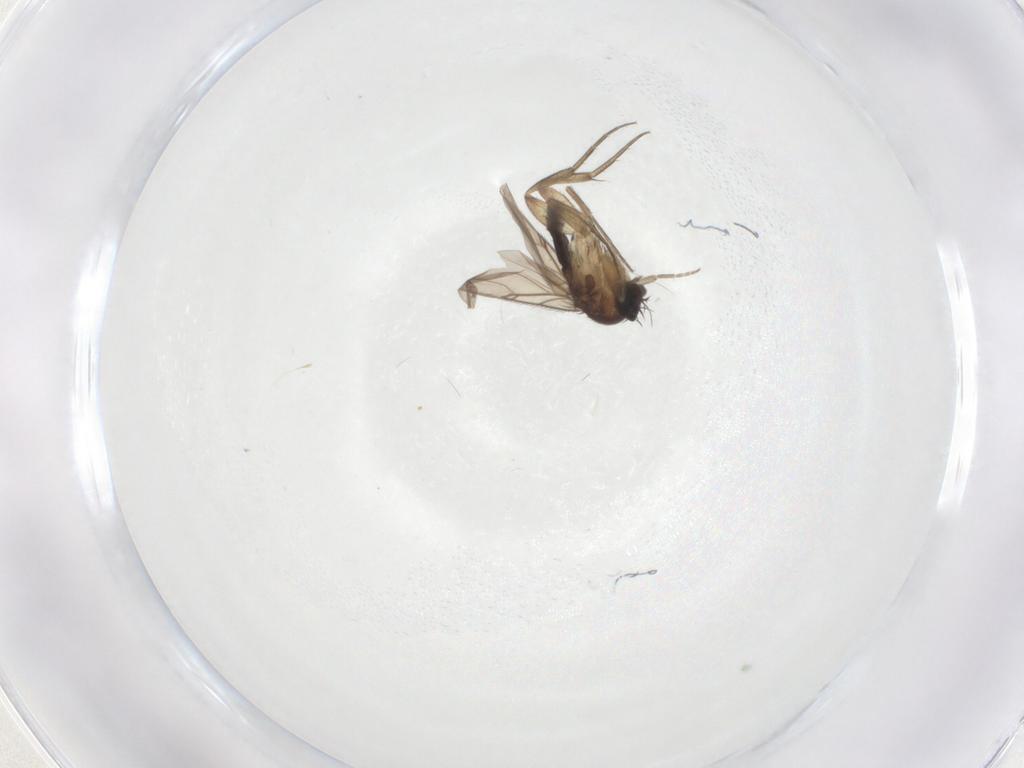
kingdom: Animalia
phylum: Arthropoda
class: Insecta
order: Diptera
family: Phoridae
